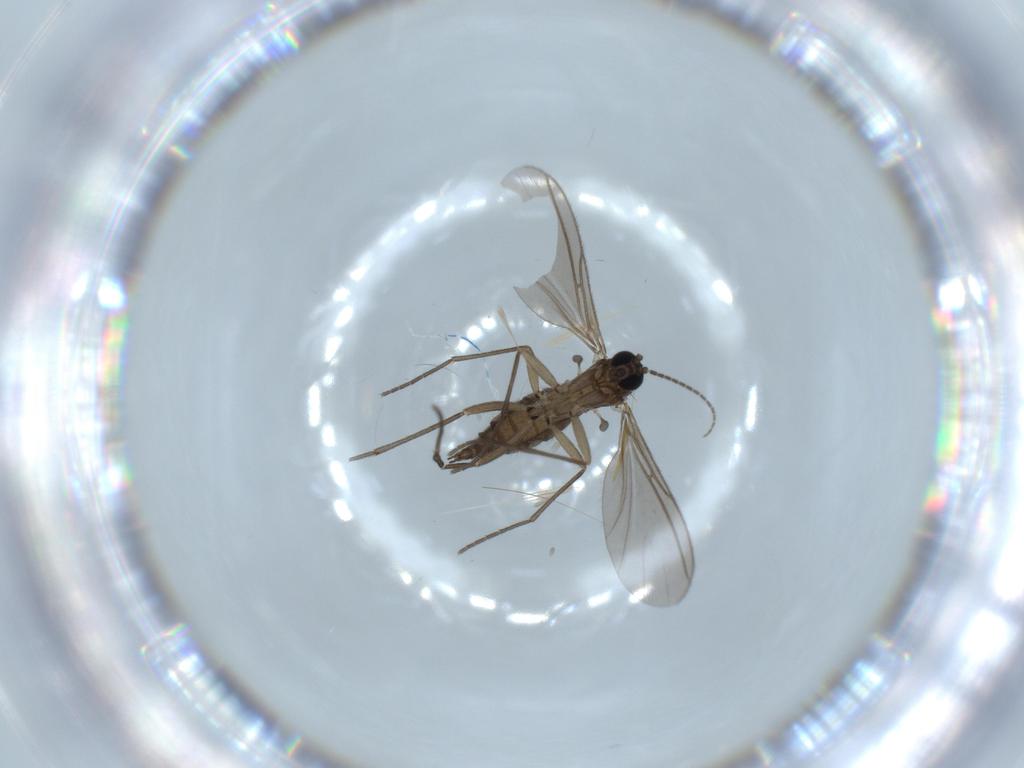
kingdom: Animalia
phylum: Arthropoda
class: Insecta
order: Diptera
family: Sciaridae
